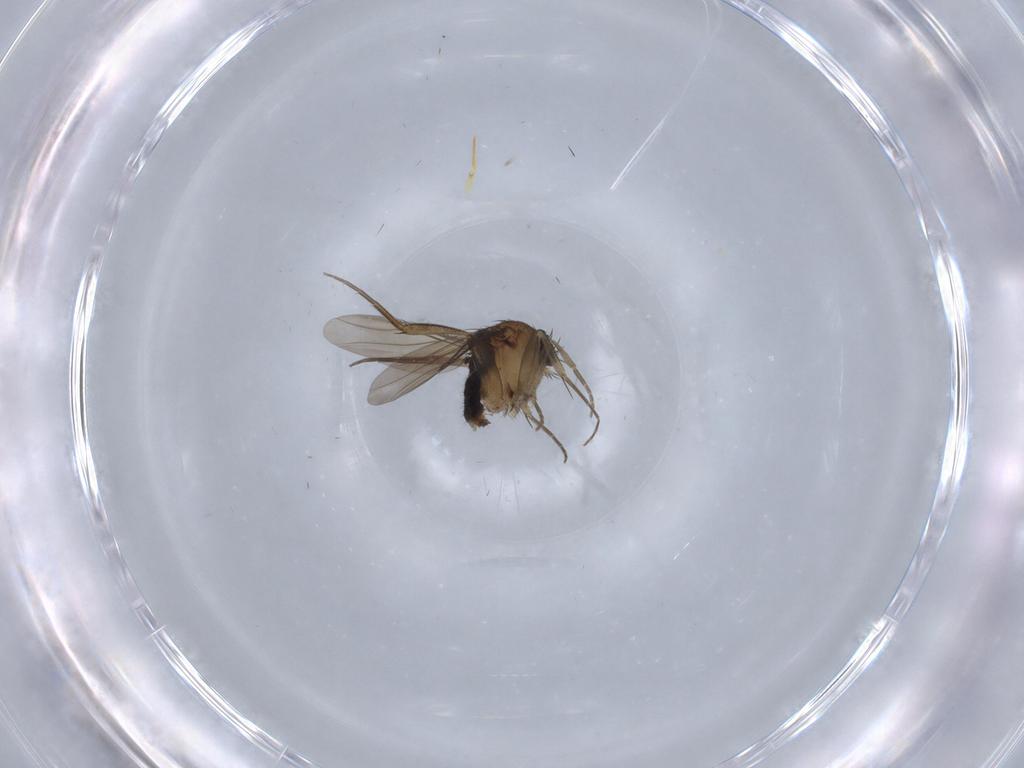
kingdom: Animalia
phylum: Arthropoda
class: Insecta
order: Diptera
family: Phoridae
